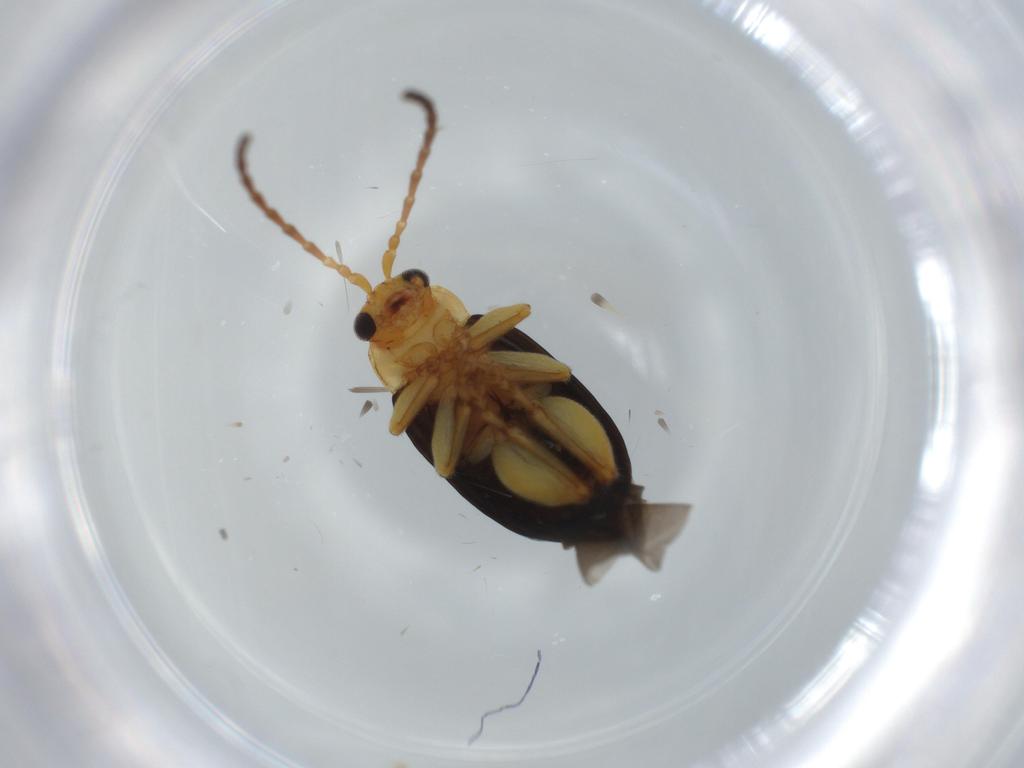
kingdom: Animalia
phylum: Arthropoda
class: Insecta
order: Coleoptera
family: Chrysomelidae
